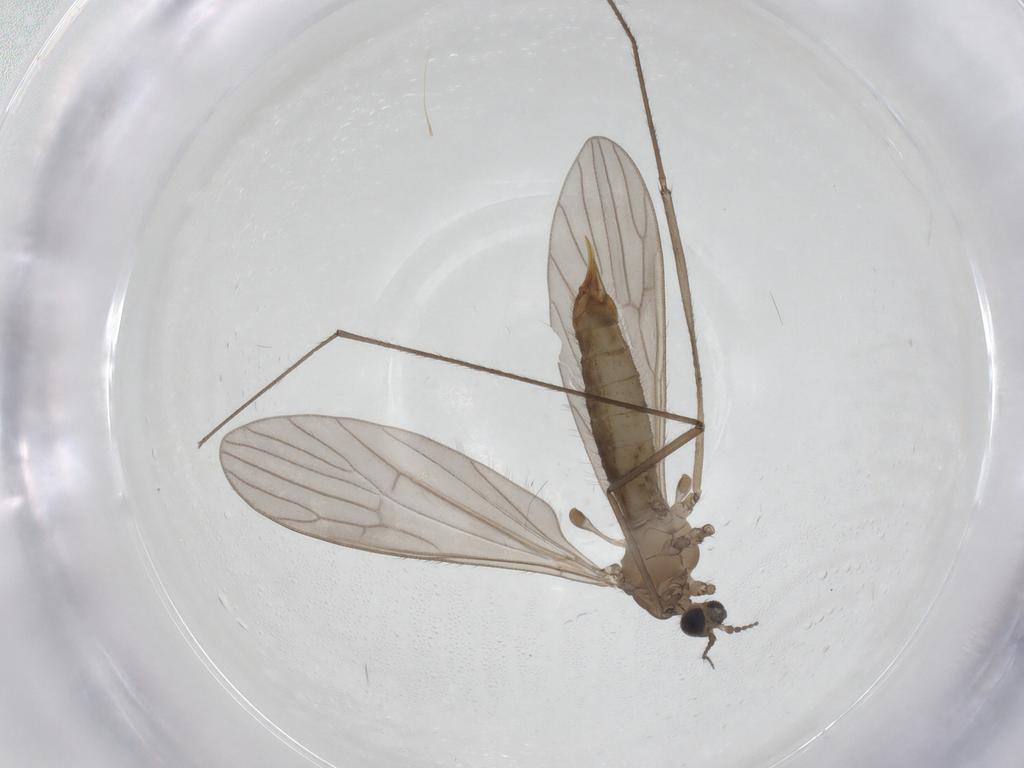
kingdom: Animalia
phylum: Arthropoda
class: Insecta
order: Diptera
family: Limoniidae
